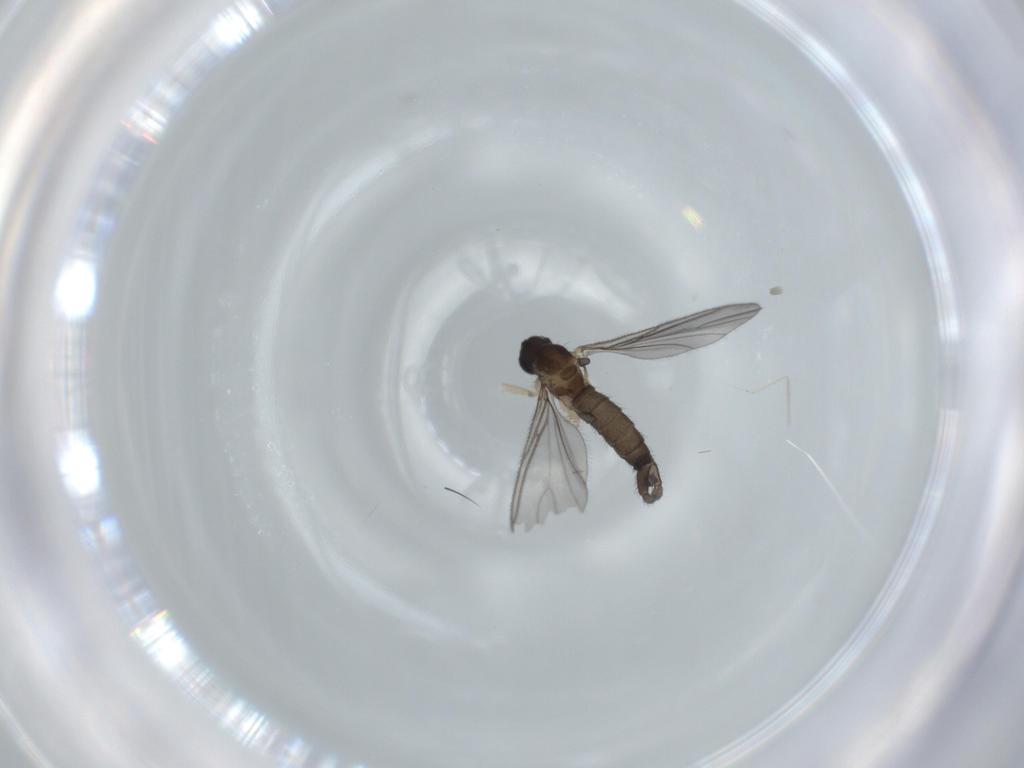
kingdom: Animalia
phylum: Arthropoda
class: Insecta
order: Diptera
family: Sciaridae
